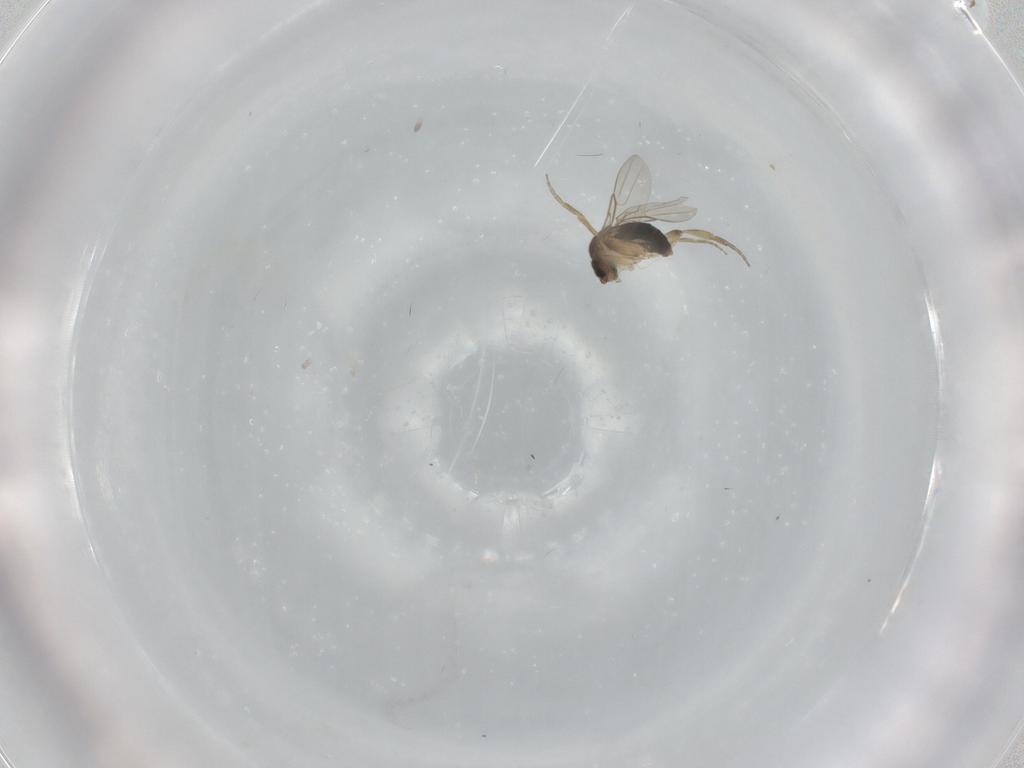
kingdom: Animalia
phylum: Arthropoda
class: Insecta
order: Diptera
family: Phoridae
